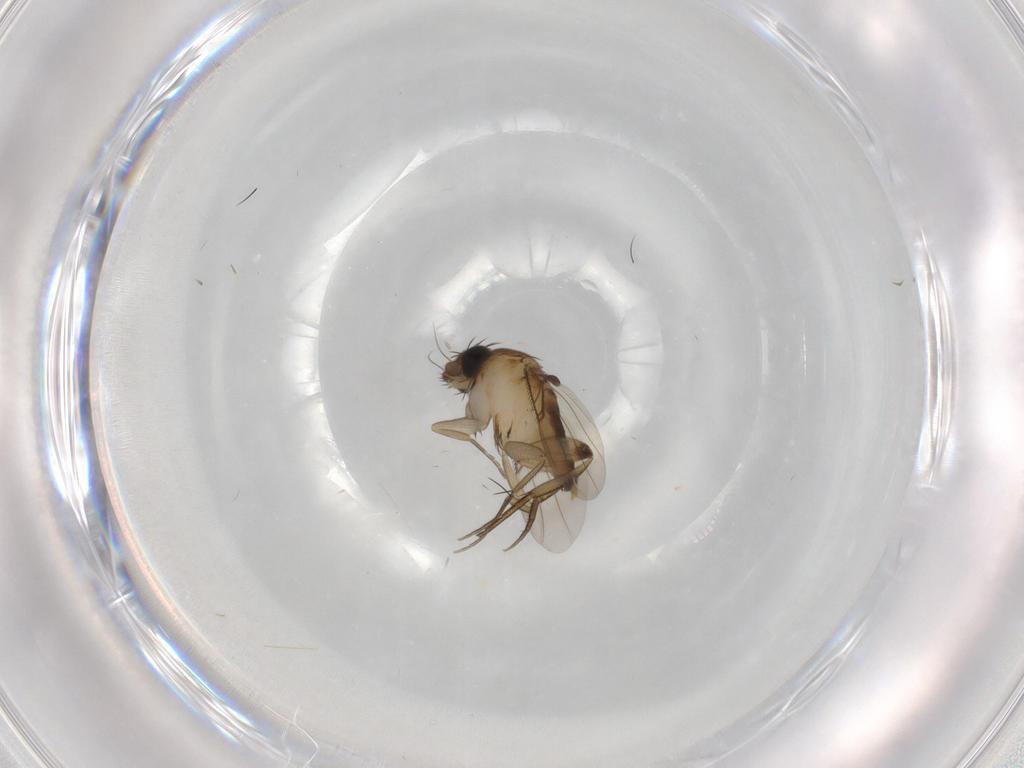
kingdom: Animalia
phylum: Arthropoda
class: Insecta
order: Diptera
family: Phoridae
